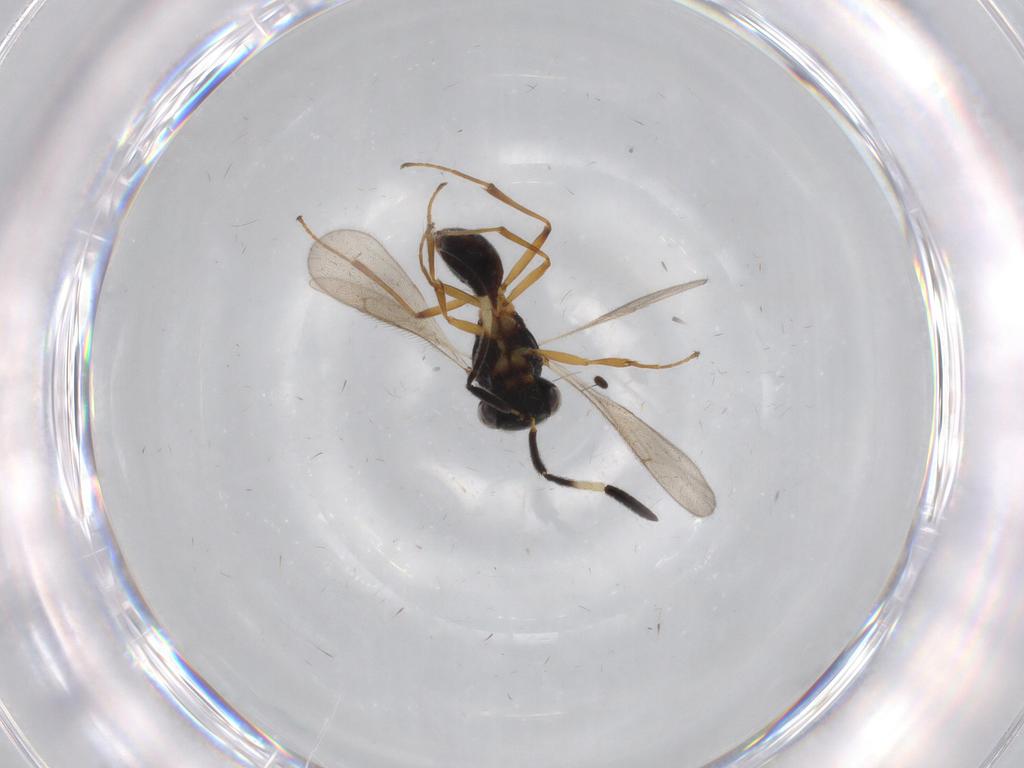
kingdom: Animalia
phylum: Arthropoda
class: Insecta
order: Hymenoptera
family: Scelionidae
